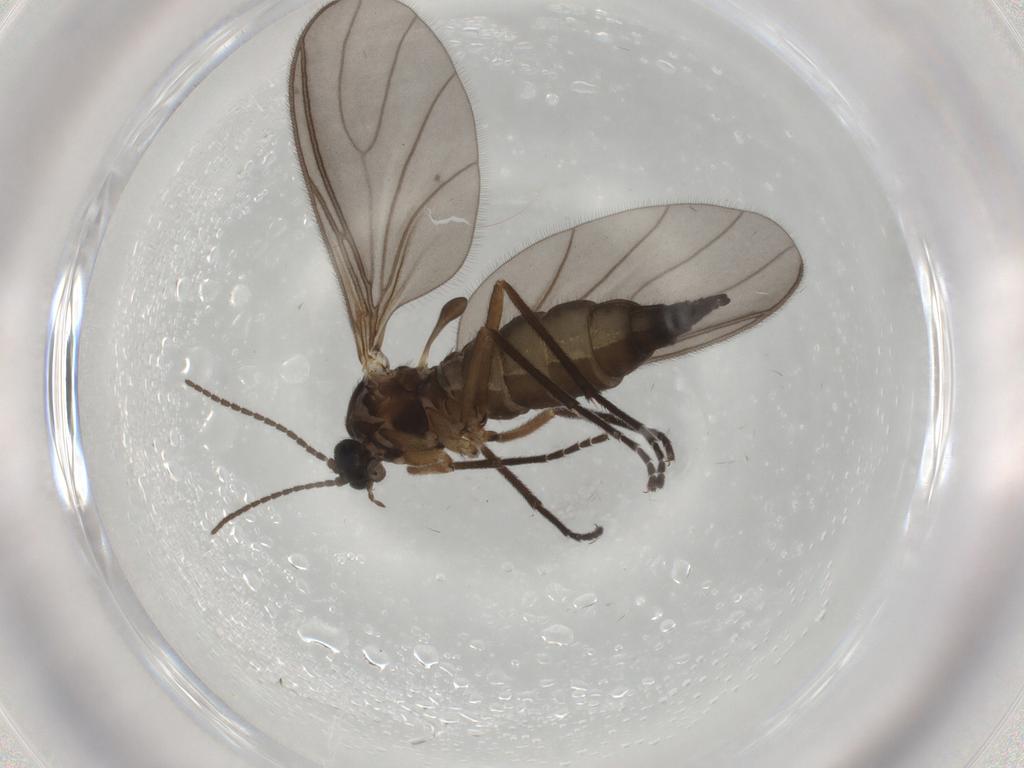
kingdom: Animalia
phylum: Arthropoda
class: Insecta
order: Diptera
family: Sciaridae
